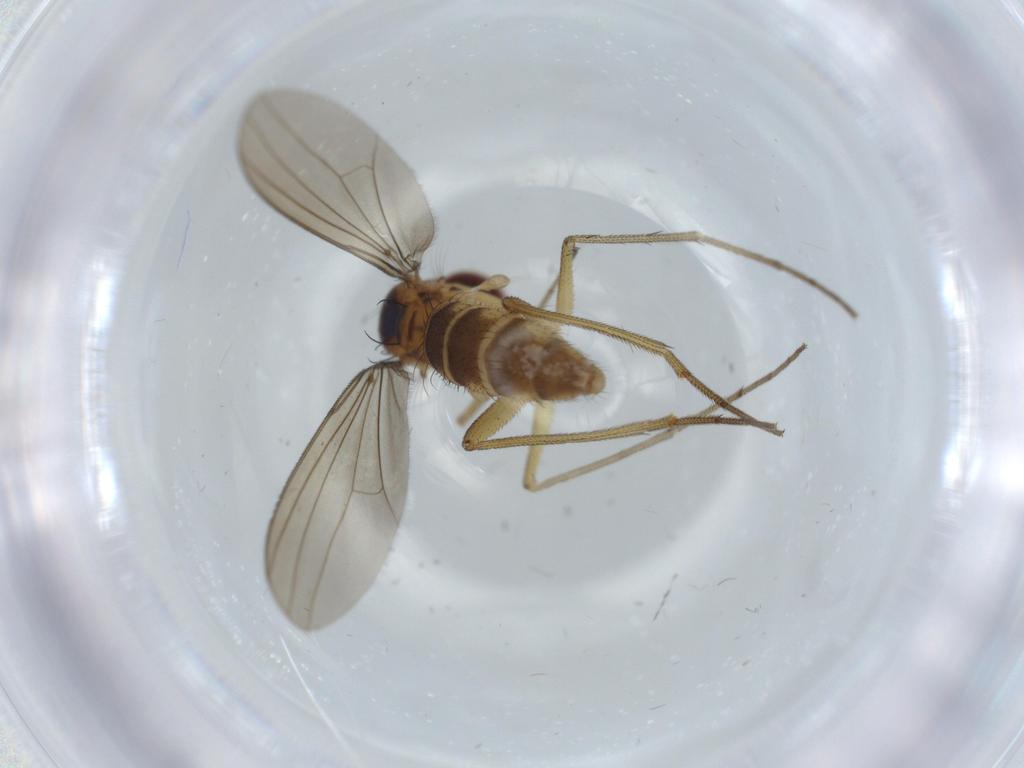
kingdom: Animalia
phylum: Arthropoda
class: Insecta
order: Diptera
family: Dolichopodidae
